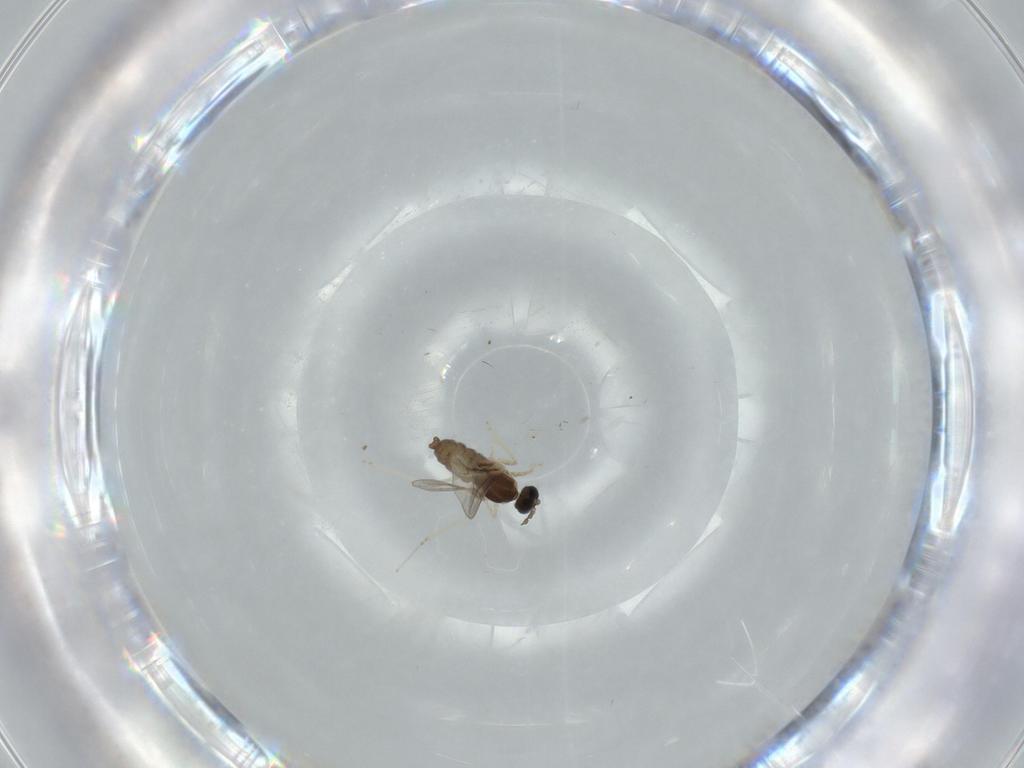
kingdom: Animalia
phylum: Arthropoda
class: Insecta
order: Diptera
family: Cecidomyiidae
